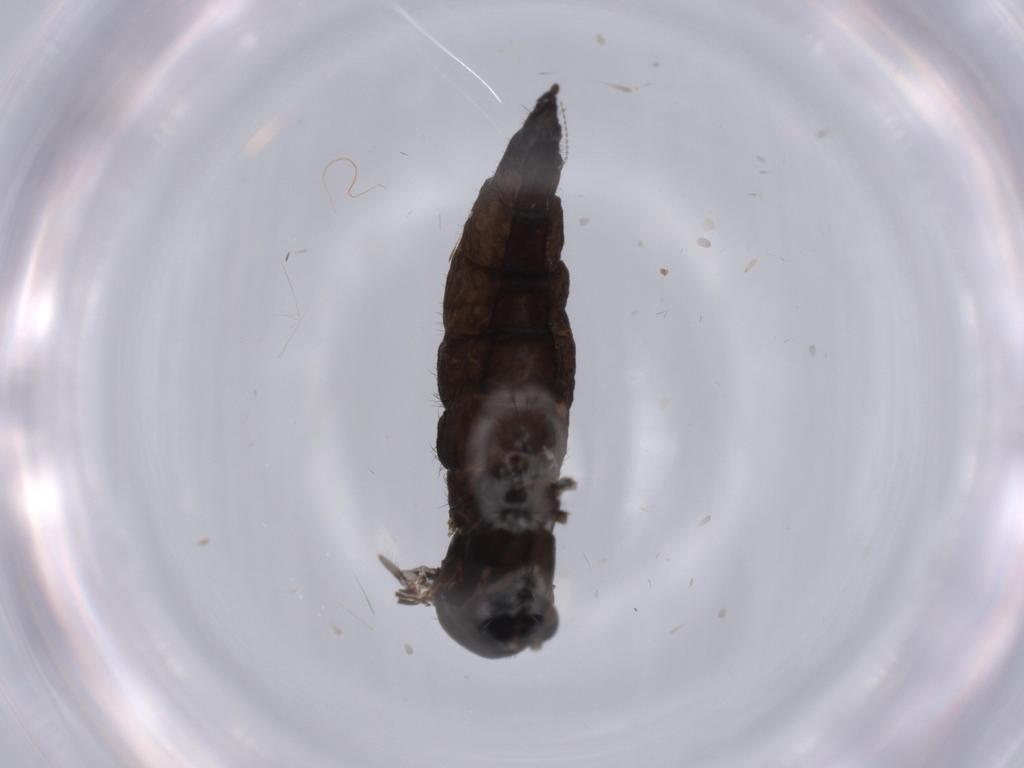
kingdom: Animalia
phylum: Arthropoda
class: Insecta
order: Diptera
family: Sciaridae
